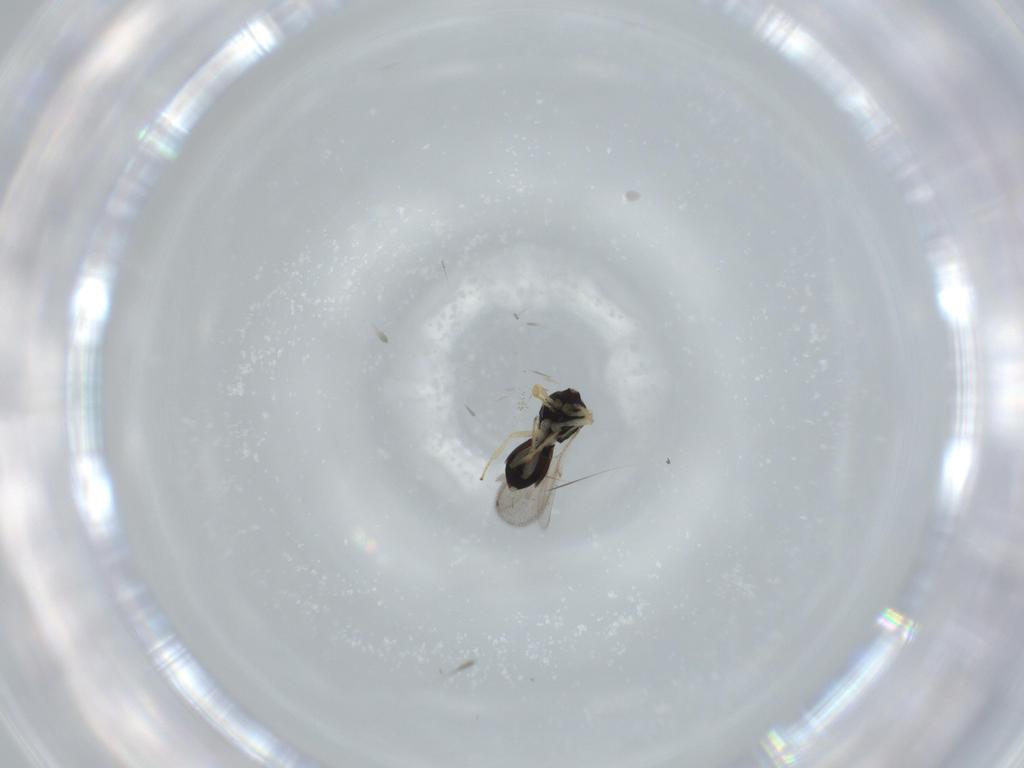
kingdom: Animalia
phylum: Arthropoda
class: Insecta
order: Hymenoptera
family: Scelionidae
